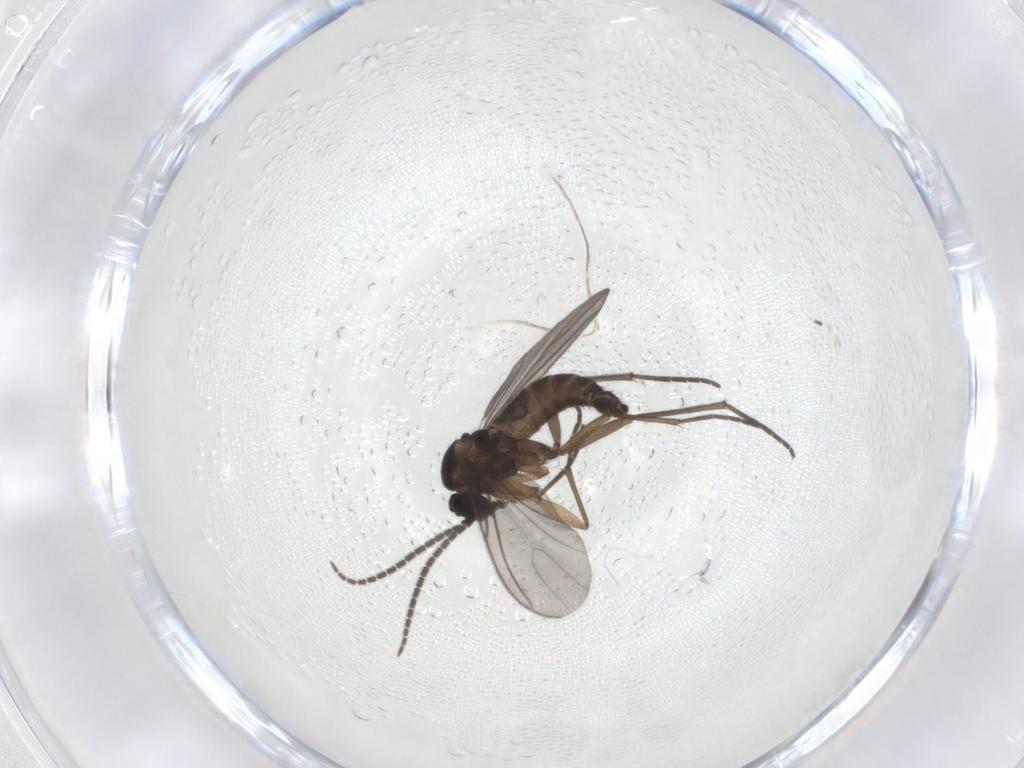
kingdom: Animalia
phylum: Arthropoda
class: Insecta
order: Diptera
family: Sciaridae
